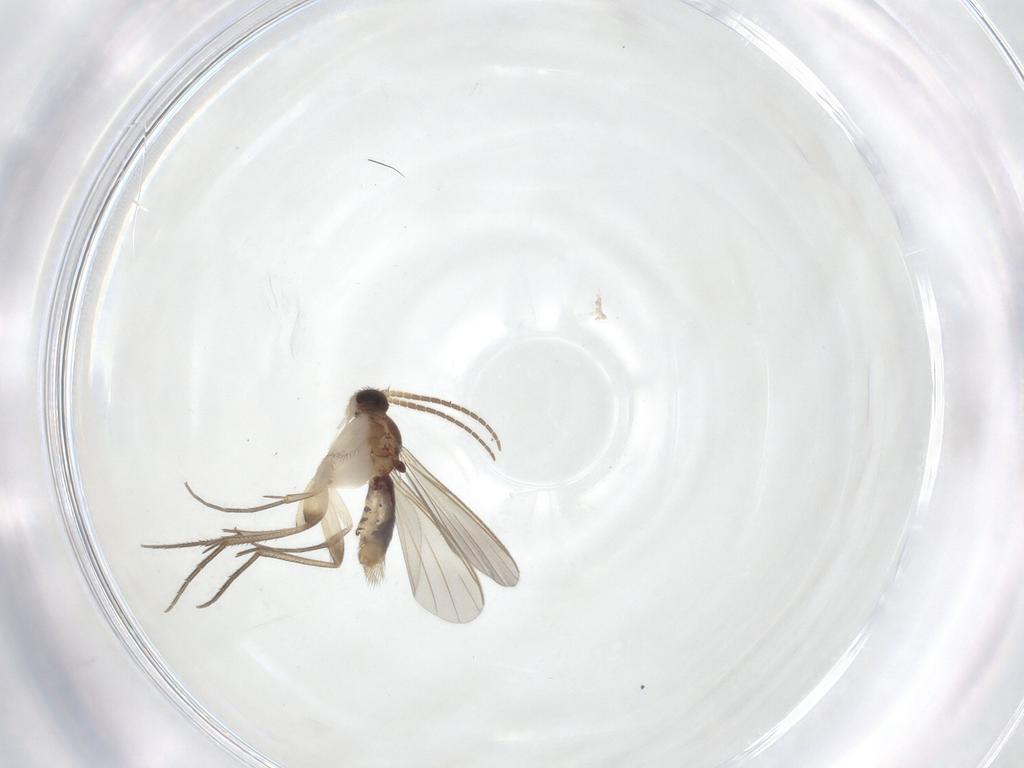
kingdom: Animalia
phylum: Arthropoda
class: Insecta
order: Diptera
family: Mycetophilidae
